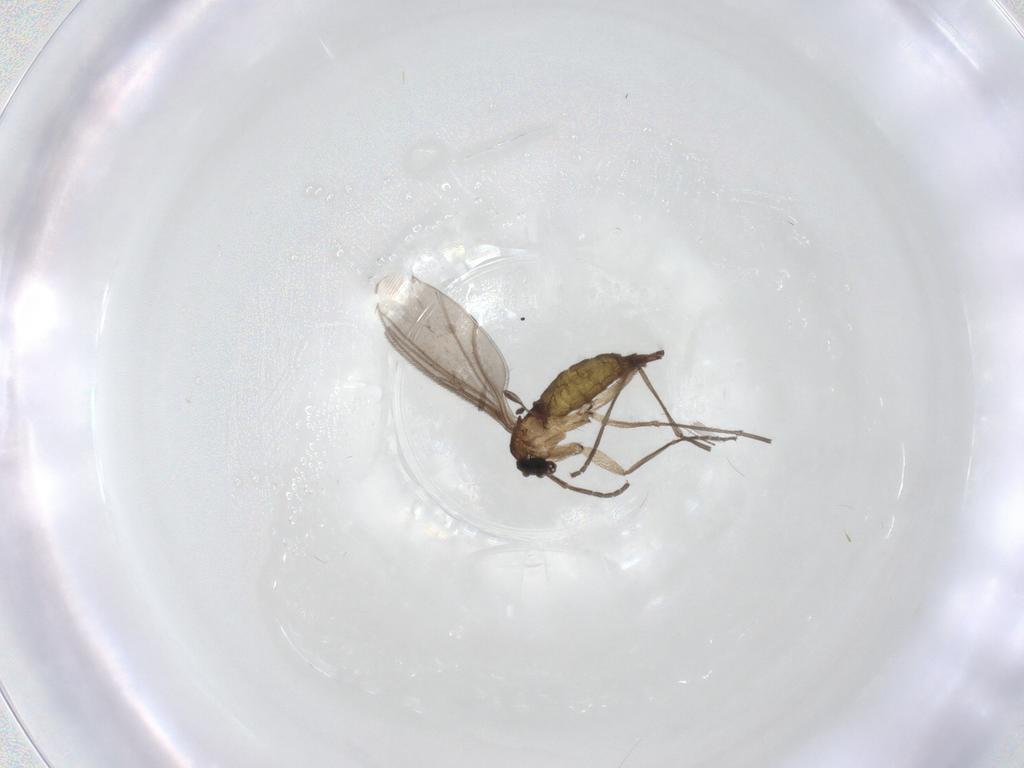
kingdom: Animalia
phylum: Arthropoda
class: Insecta
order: Diptera
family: Sciaridae
